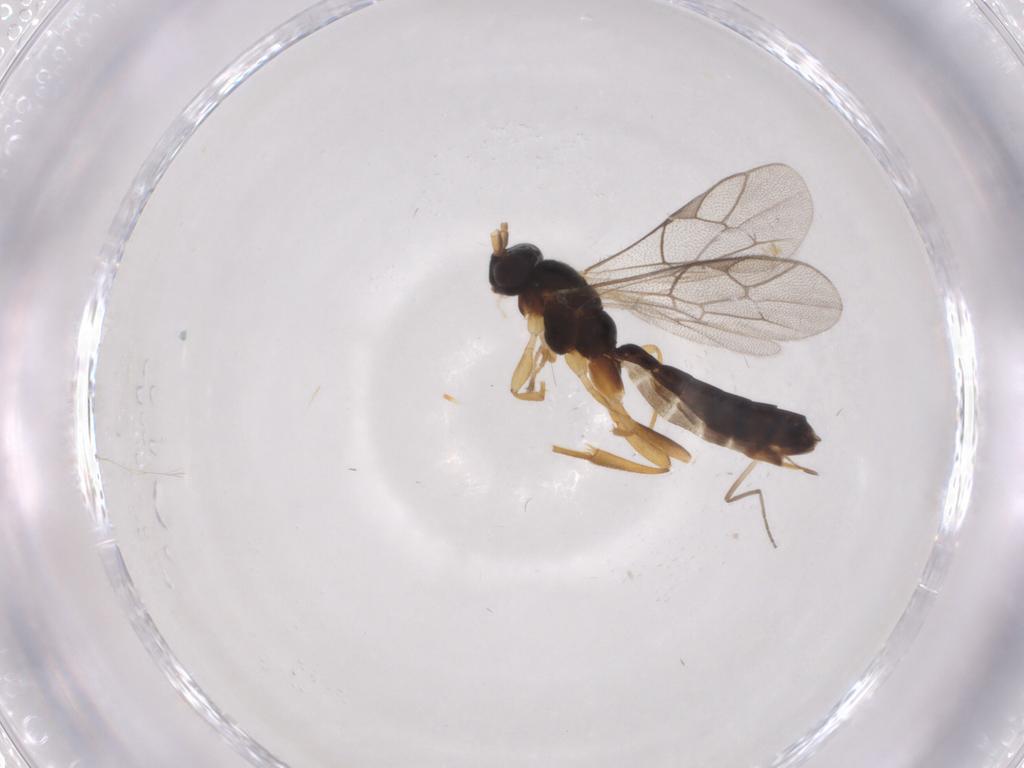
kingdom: Animalia
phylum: Arthropoda
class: Insecta
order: Hymenoptera
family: Ichneumonidae
